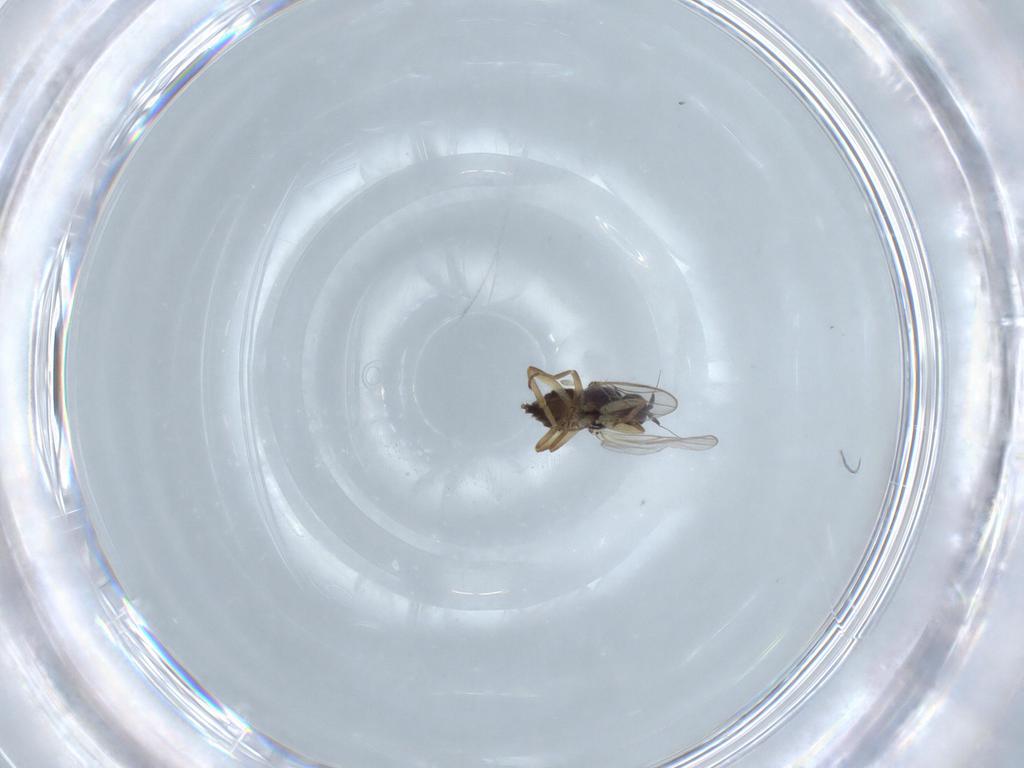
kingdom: Animalia
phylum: Arthropoda
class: Insecta
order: Diptera
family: Hybotidae
